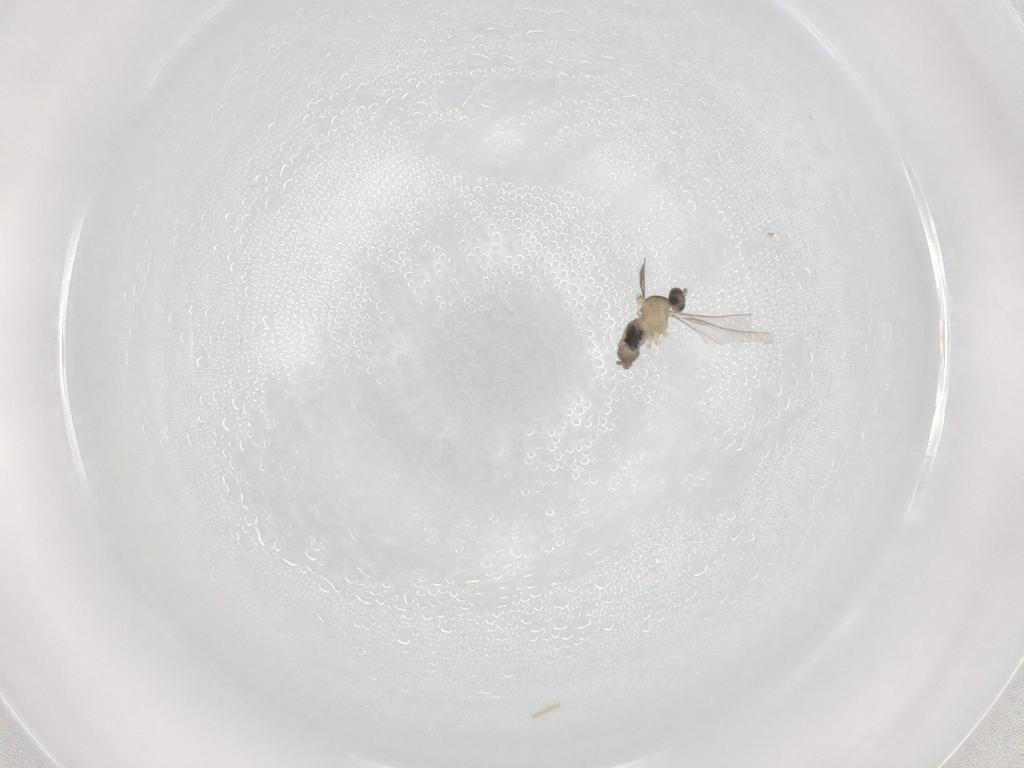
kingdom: Animalia
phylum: Arthropoda
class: Insecta
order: Diptera
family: Cecidomyiidae
